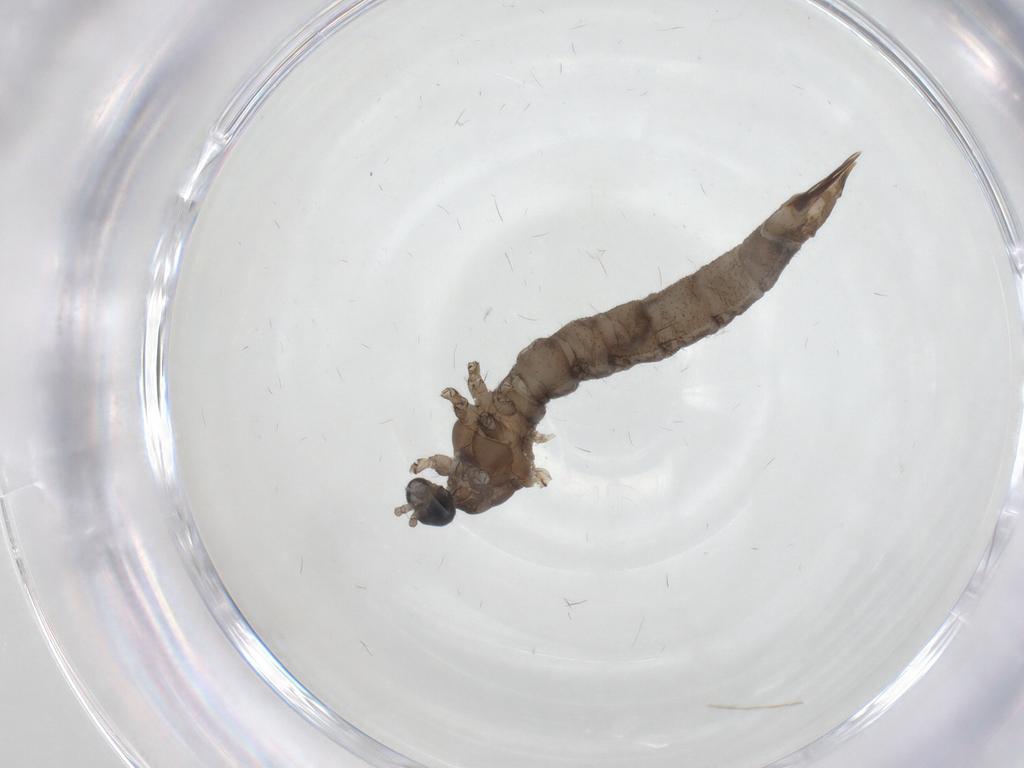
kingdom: Animalia
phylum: Arthropoda
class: Insecta
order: Diptera
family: Limoniidae
